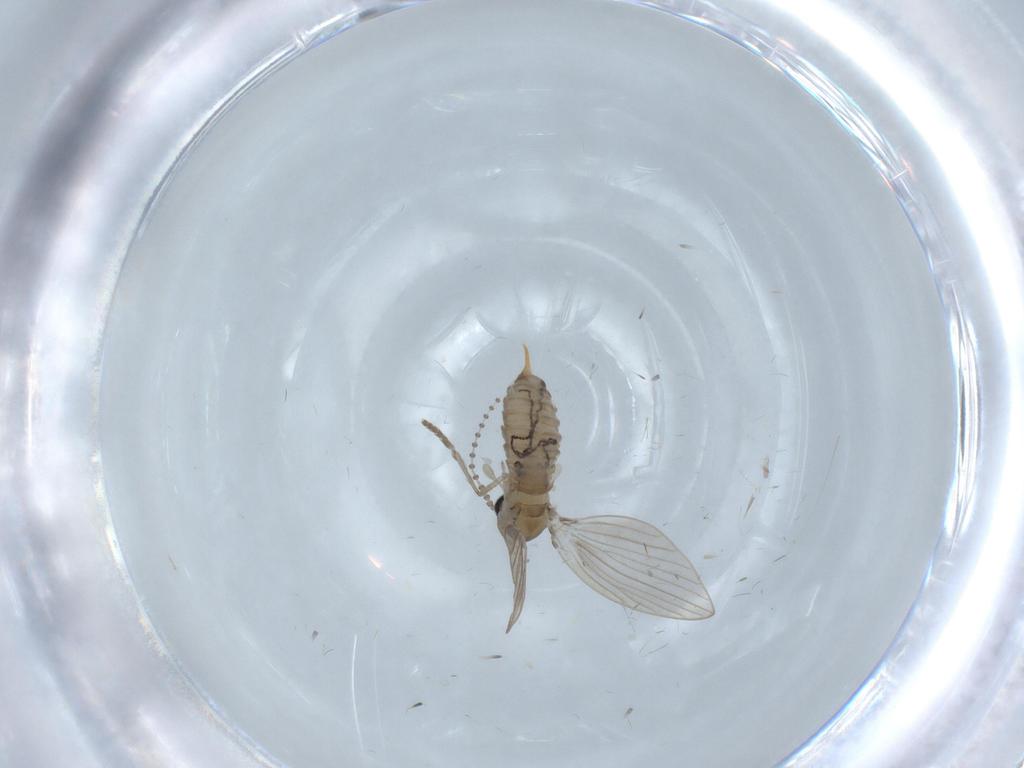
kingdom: Animalia
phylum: Arthropoda
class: Insecta
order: Diptera
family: Psychodidae
